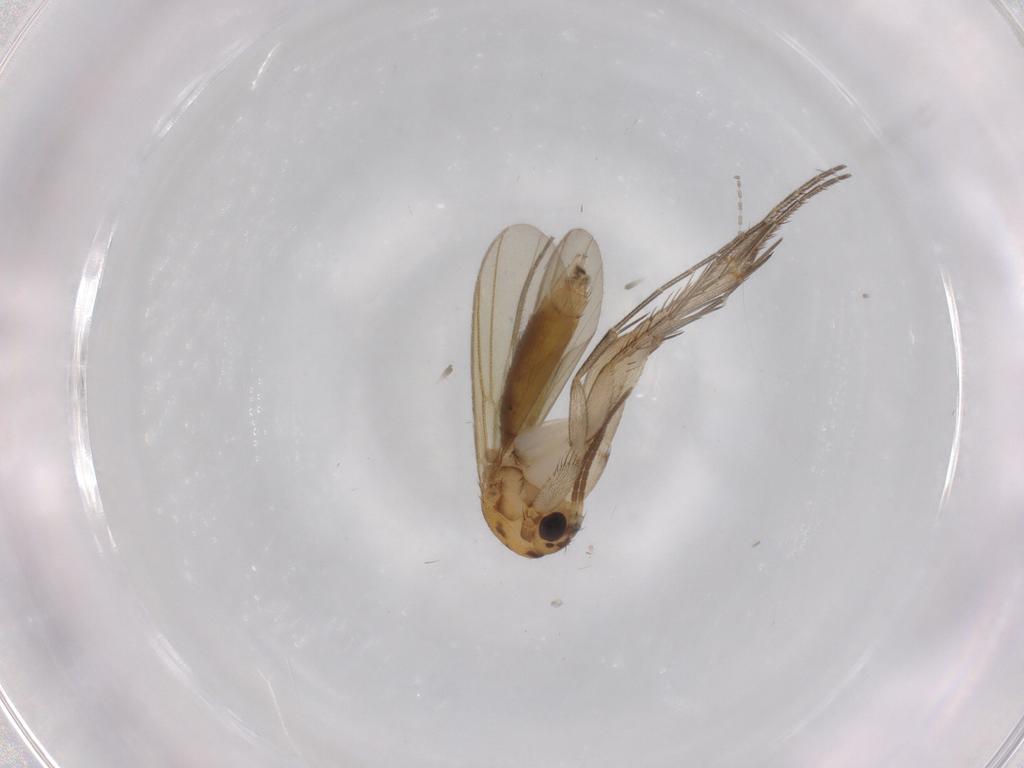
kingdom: Animalia
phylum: Arthropoda
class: Insecta
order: Diptera
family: Mycetophilidae
